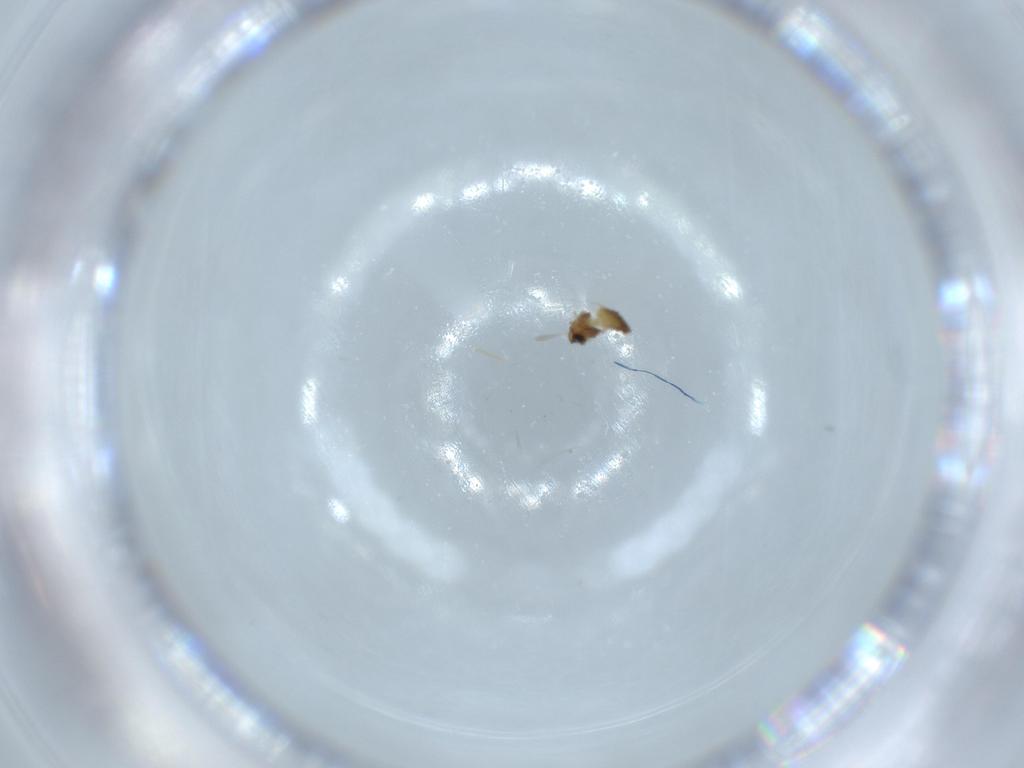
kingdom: Animalia
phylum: Arthropoda
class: Insecta
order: Diptera
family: Chironomidae
